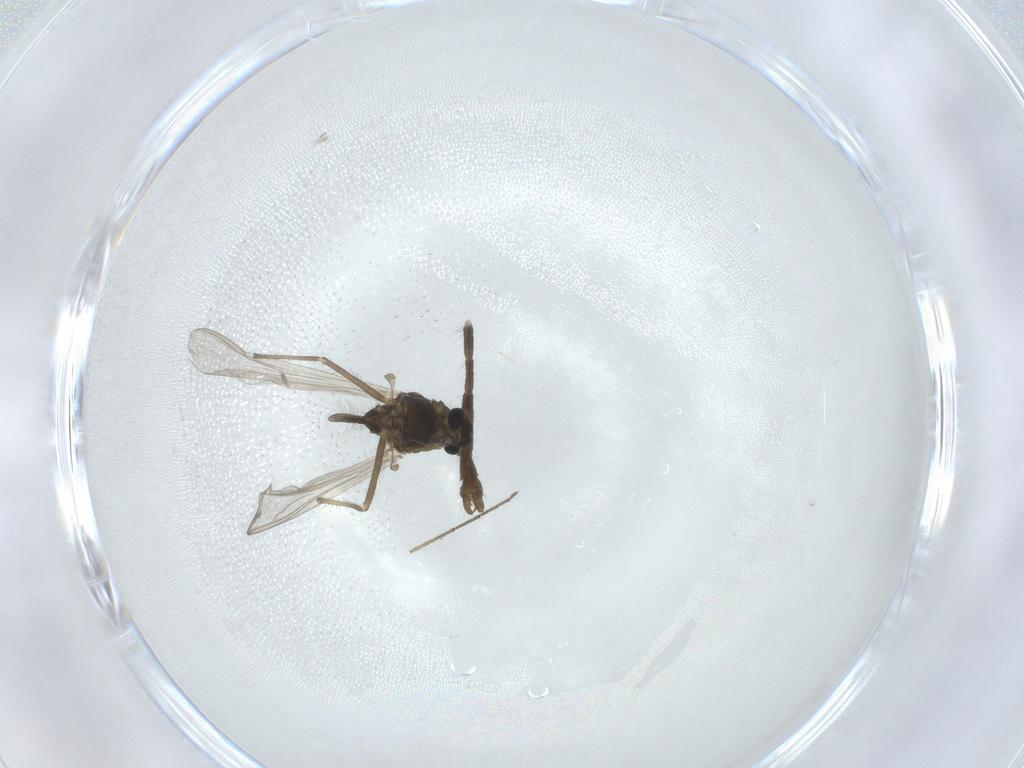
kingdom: Animalia
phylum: Arthropoda
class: Insecta
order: Diptera
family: Chironomidae
